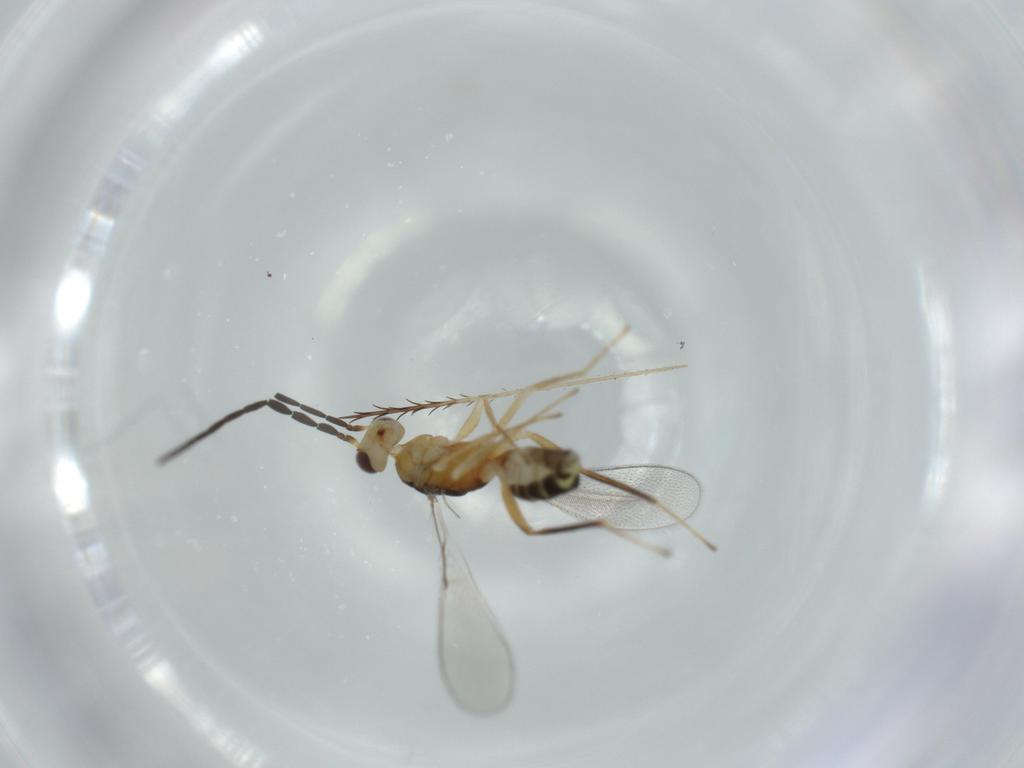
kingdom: Animalia
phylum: Arthropoda
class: Insecta
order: Hymenoptera
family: Mymaridae
